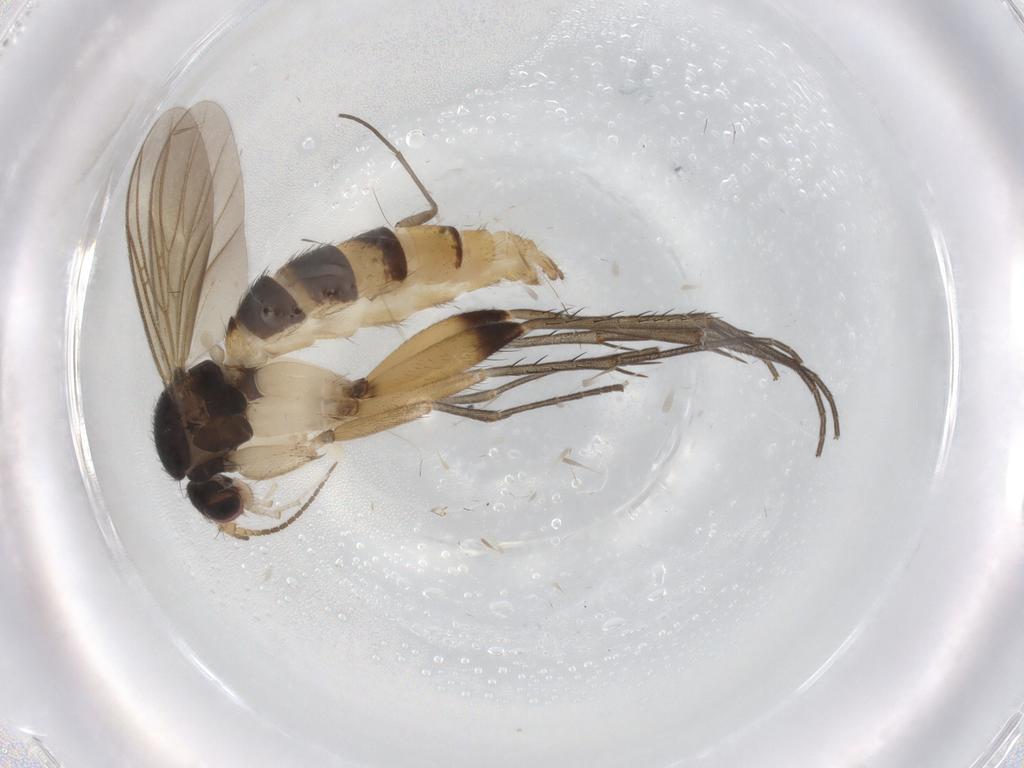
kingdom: Animalia
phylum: Arthropoda
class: Insecta
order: Diptera
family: Mycetophilidae
